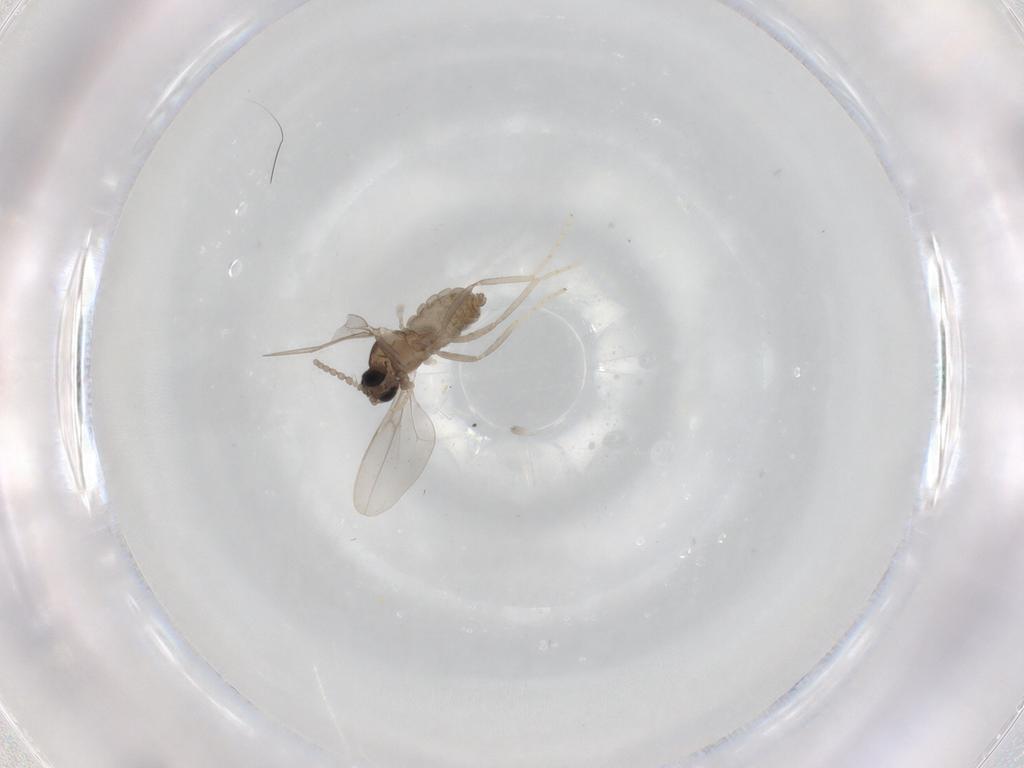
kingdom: Animalia
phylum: Arthropoda
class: Insecta
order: Diptera
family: Cecidomyiidae
